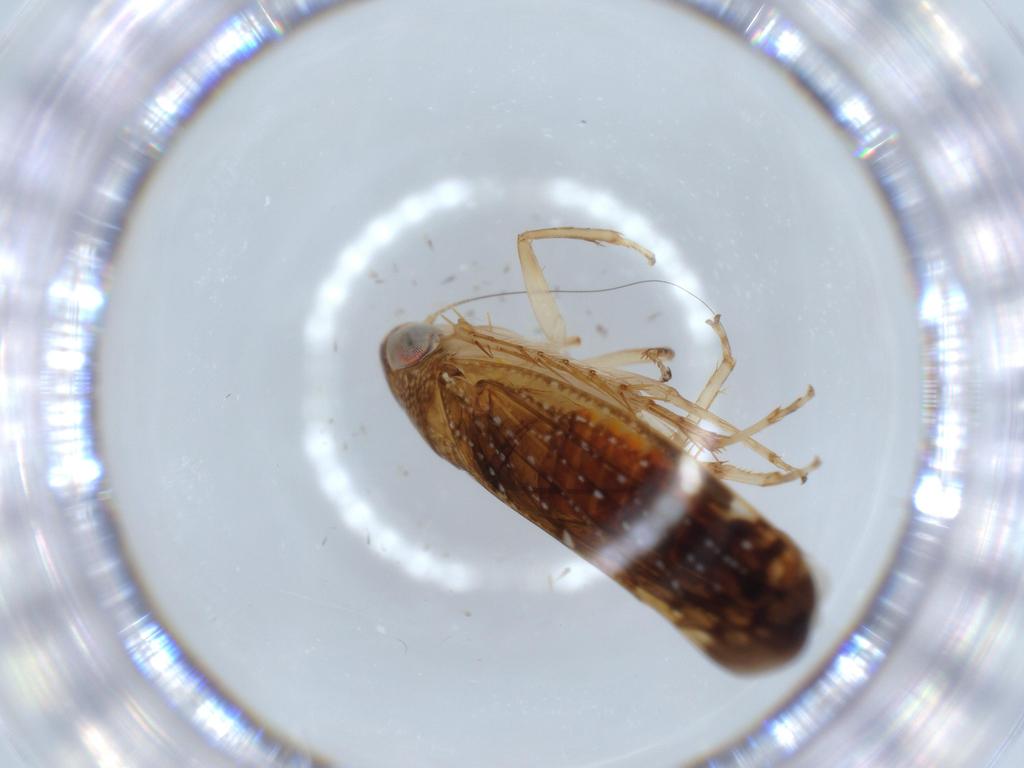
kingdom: Animalia
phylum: Arthropoda
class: Insecta
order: Hemiptera
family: Cicadellidae
